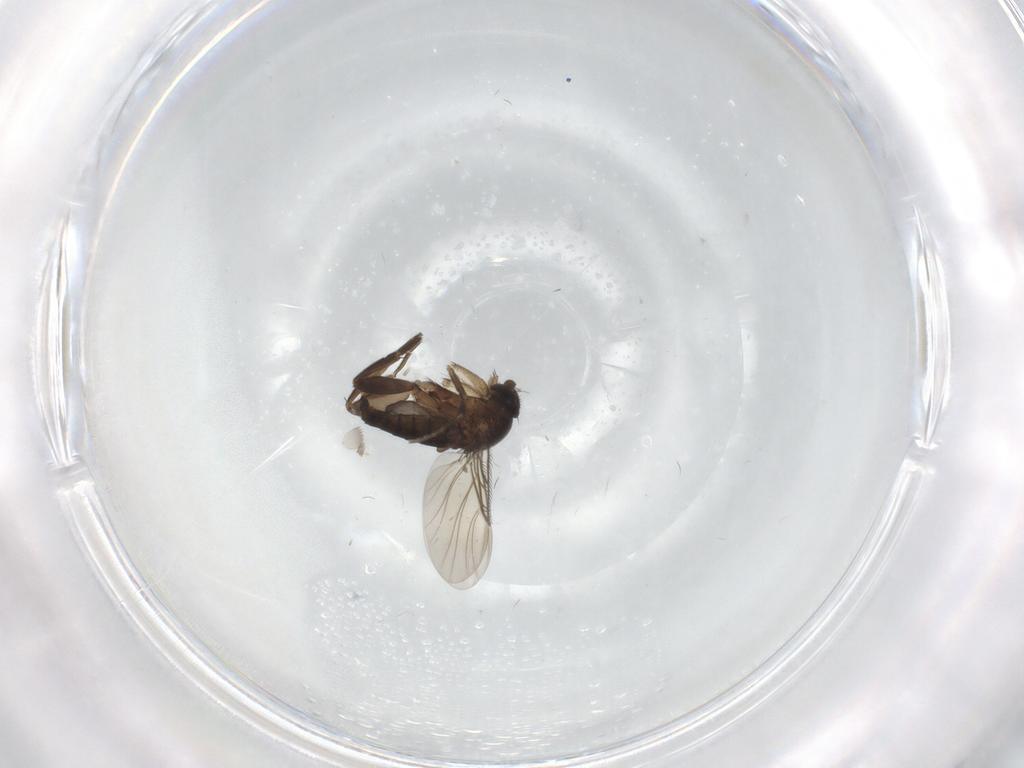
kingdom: Animalia
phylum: Arthropoda
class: Insecta
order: Diptera
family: Phoridae
